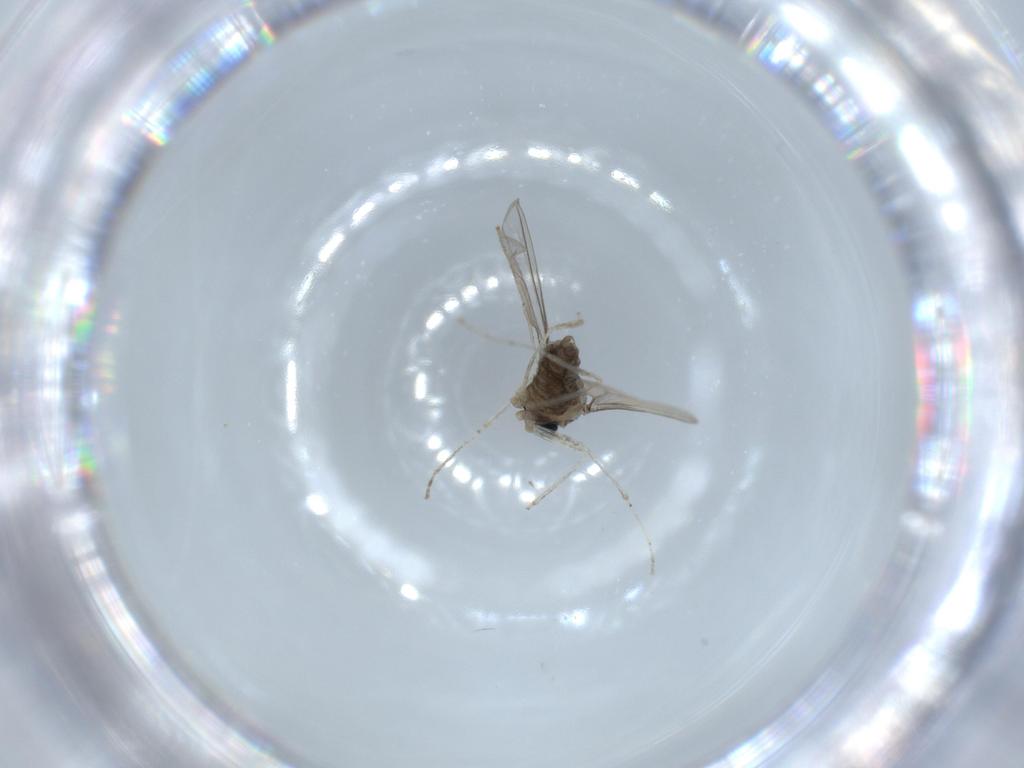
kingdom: Animalia
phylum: Arthropoda
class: Insecta
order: Diptera
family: Cecidomyiidae
